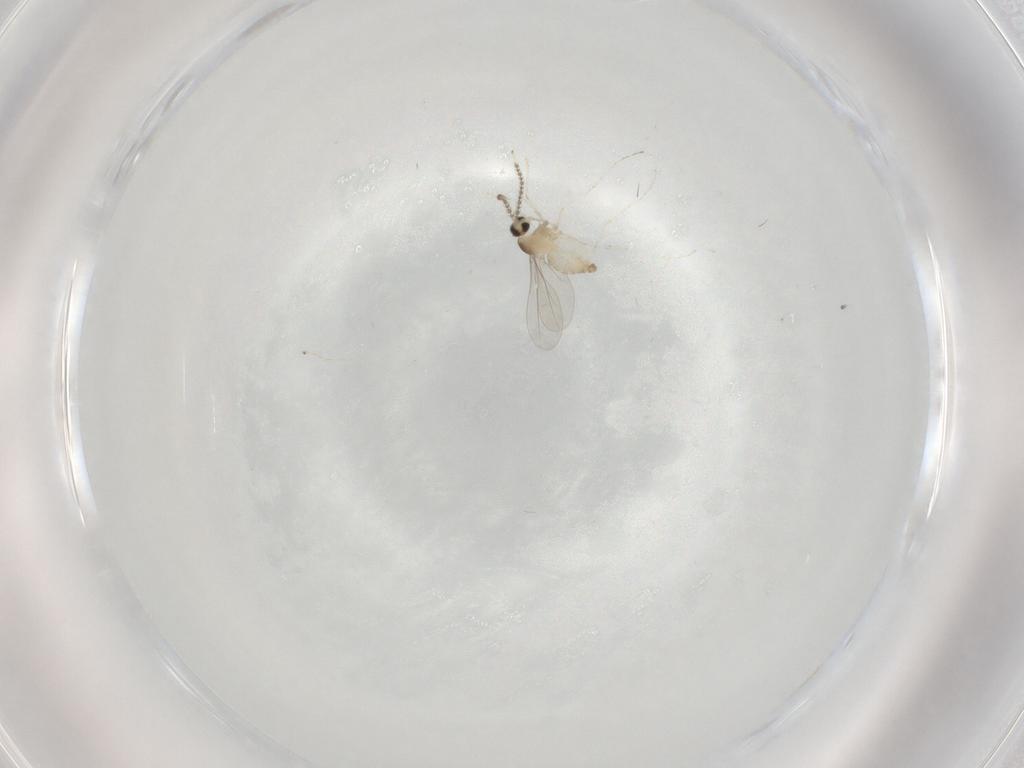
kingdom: Animalia
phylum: Arthropoda
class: Insecta
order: Diptera
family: Cecidomyiidae
